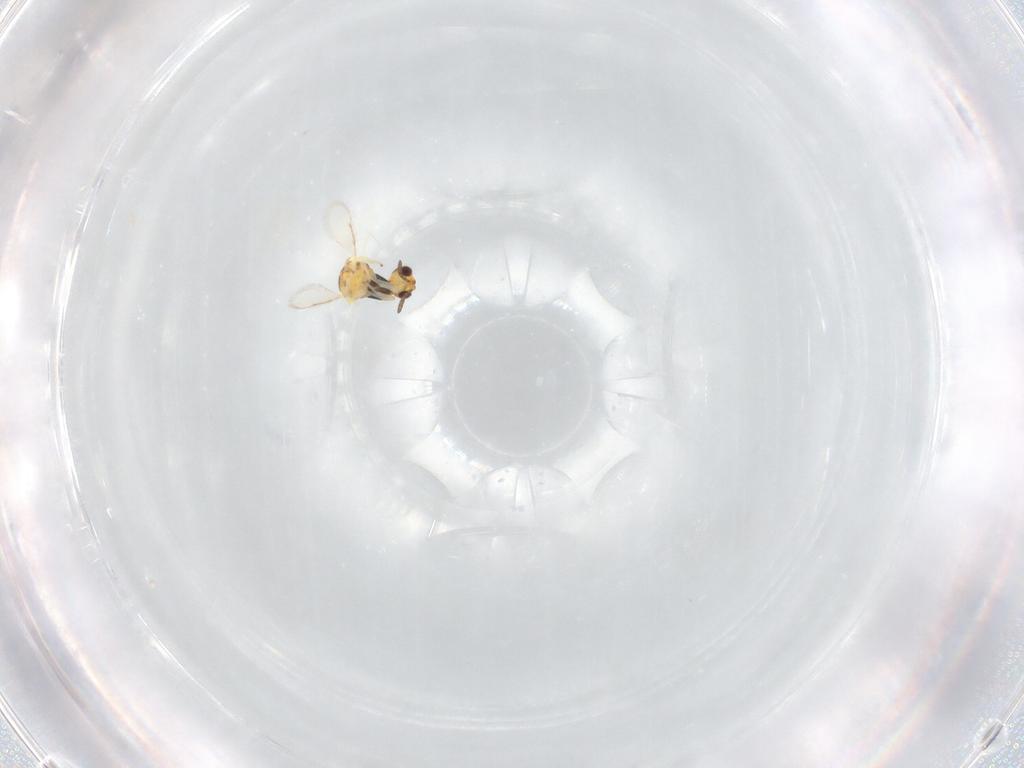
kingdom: Animalia
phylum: Arthropoda
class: Insecta
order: Hymenoptera
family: Aphelinidae
